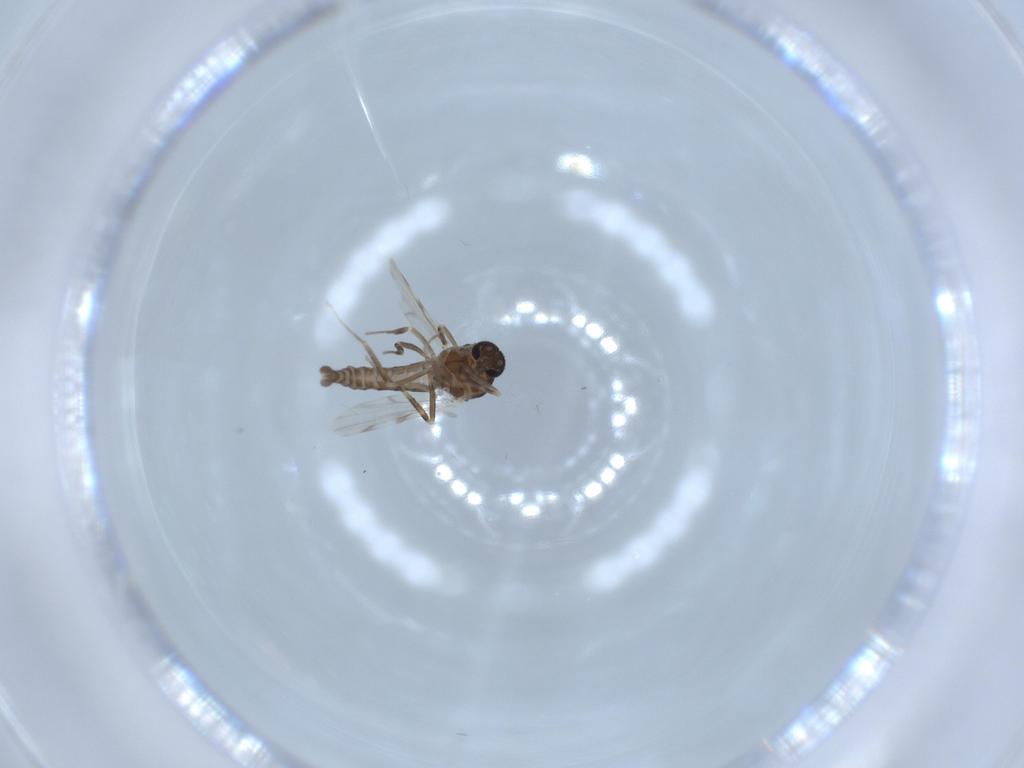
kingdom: Animalia
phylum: Arthropoda
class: Insecta
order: Diptera
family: Ceratopogonidae
